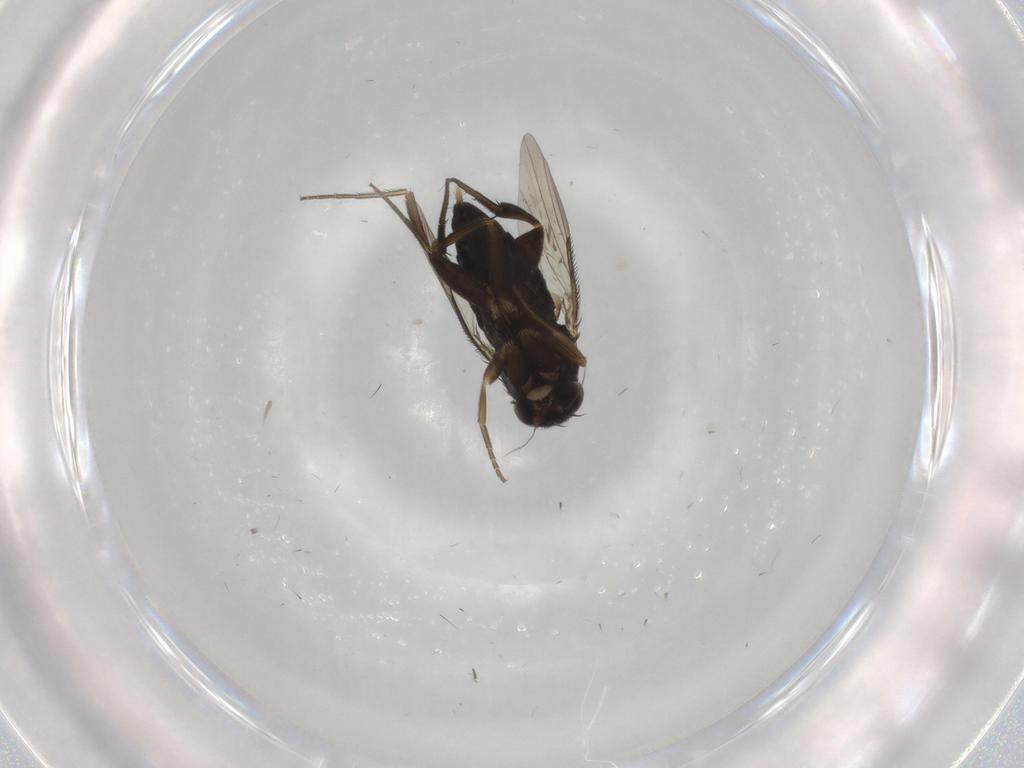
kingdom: Animalia
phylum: Arthropoda
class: Insecta
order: Diptera
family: Phoridae
